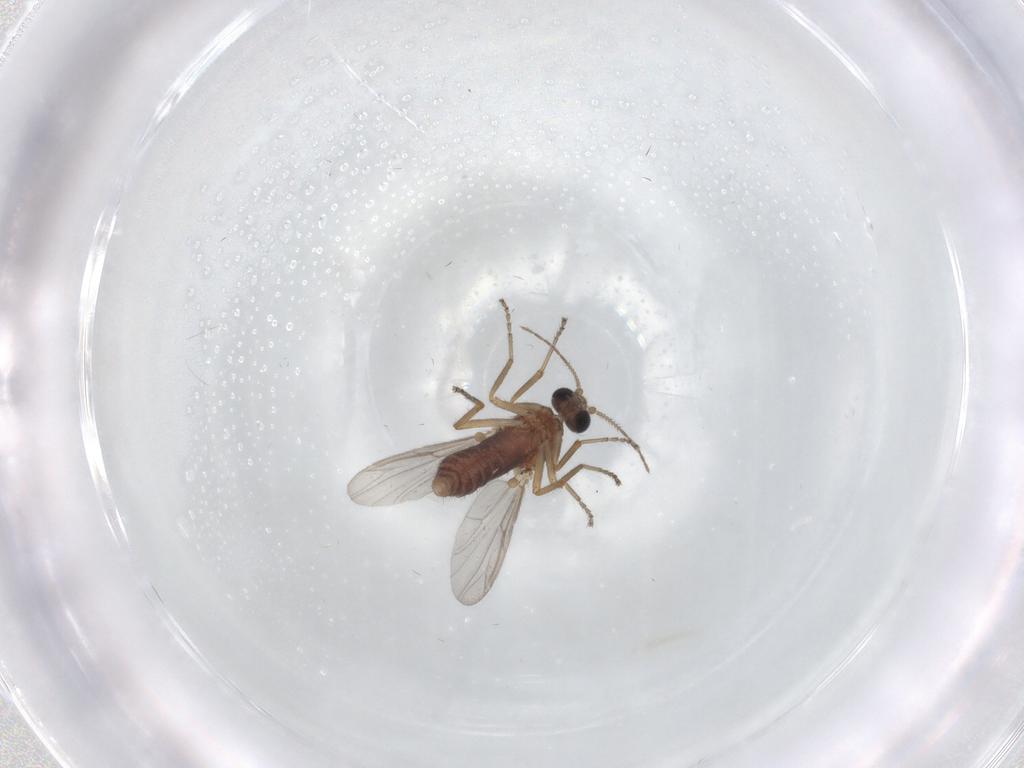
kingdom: Animalia
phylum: Arthropoda
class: Insecta
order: Diptera
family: Ceratopogonidae
